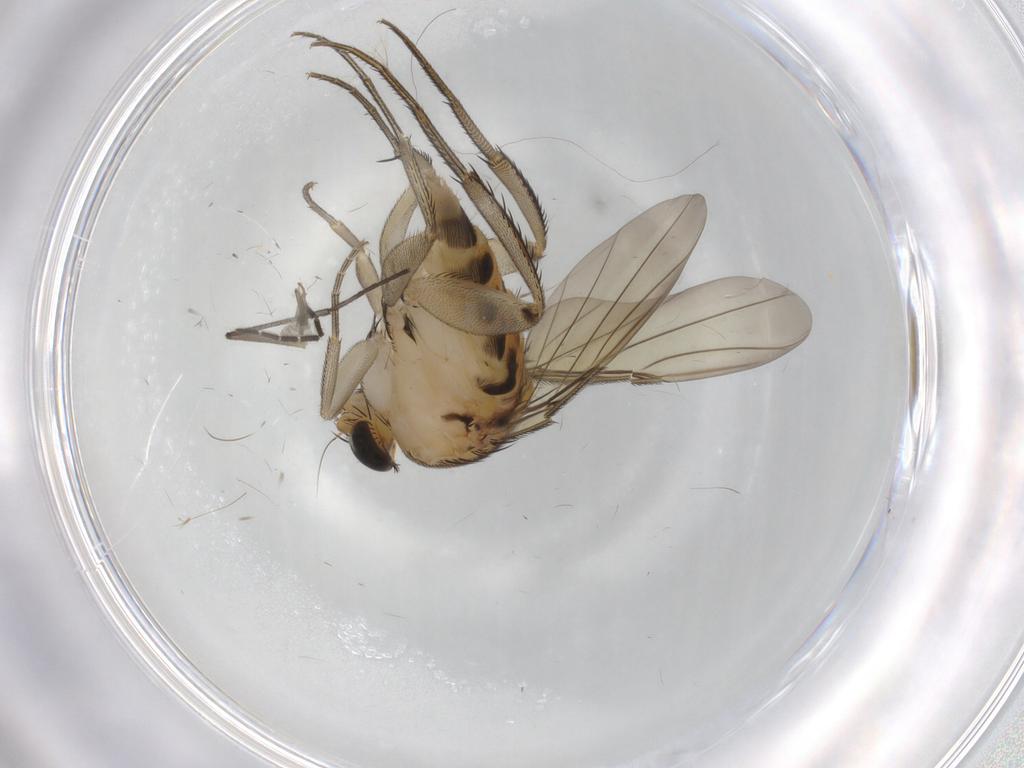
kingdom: Animalia
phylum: Arthropoda
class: Insecta
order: Diptera
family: Sciaridae
